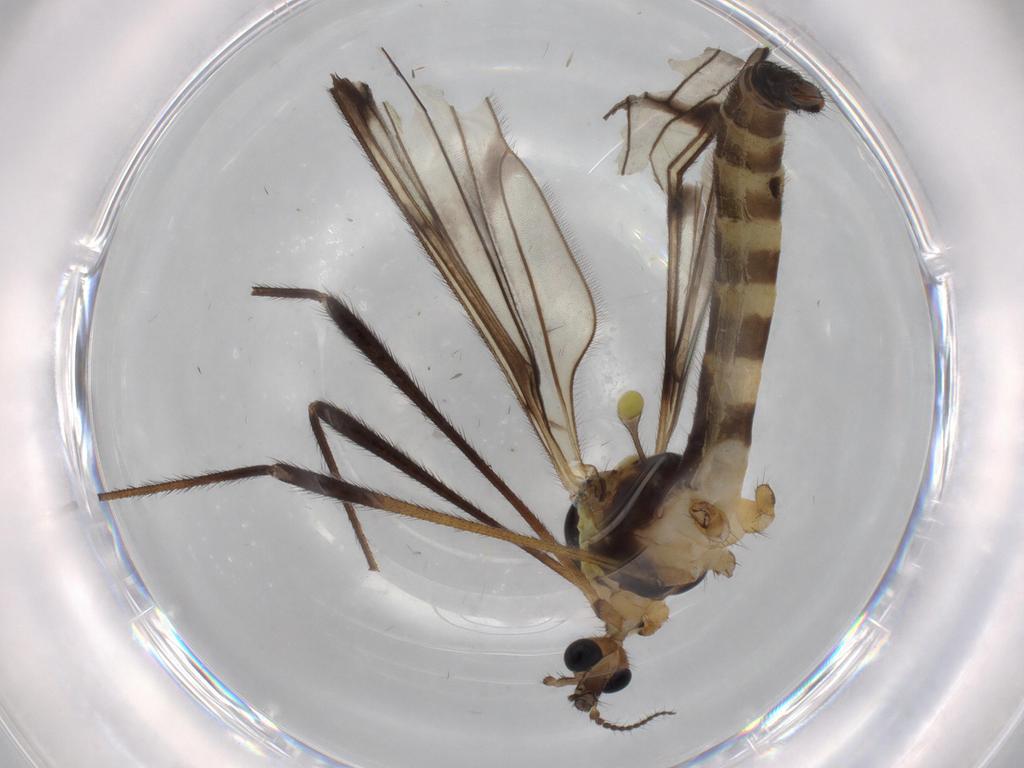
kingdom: Animalia
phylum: Arthropoda
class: Insecta
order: Diptera
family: Limoniidae
